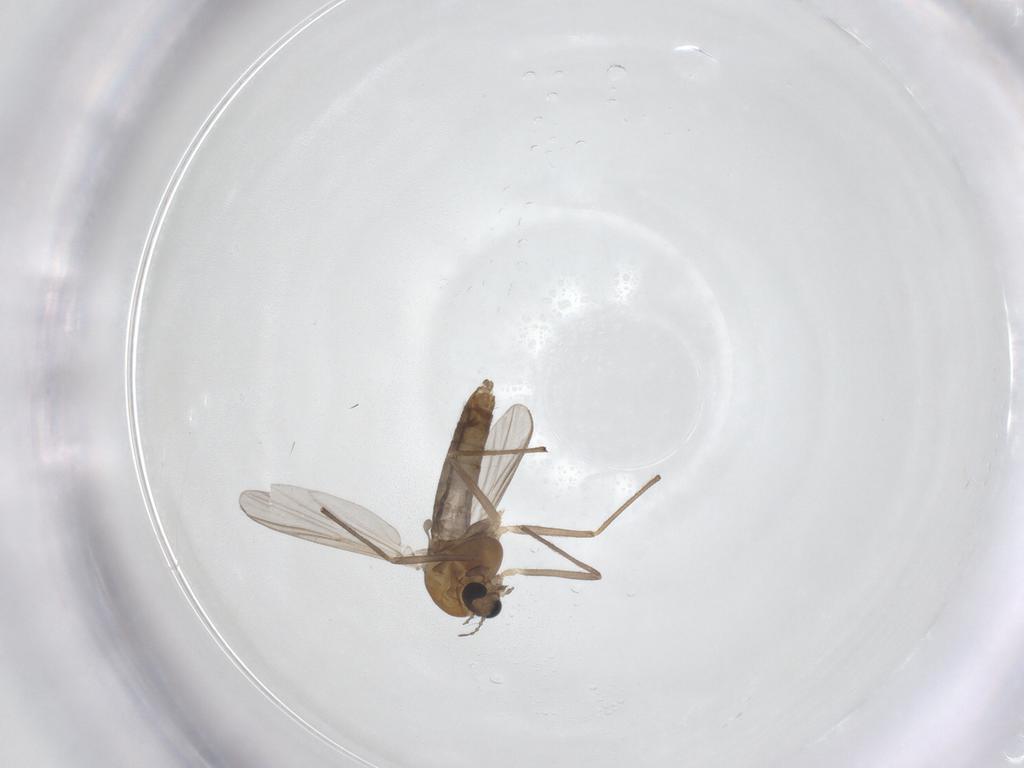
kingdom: Animalia
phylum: Arthropoda
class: Insecta
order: Diptera
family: Chironomidae
